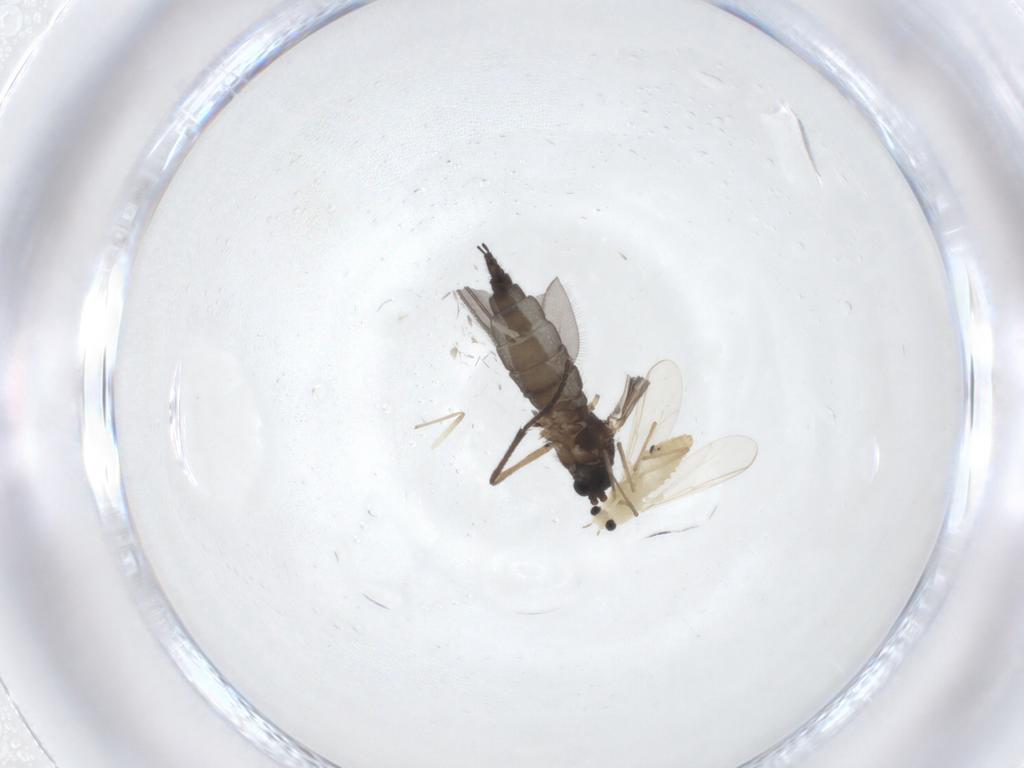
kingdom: Animalia
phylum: Arthropoda
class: Insecta
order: Diptera
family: Sciaridae
